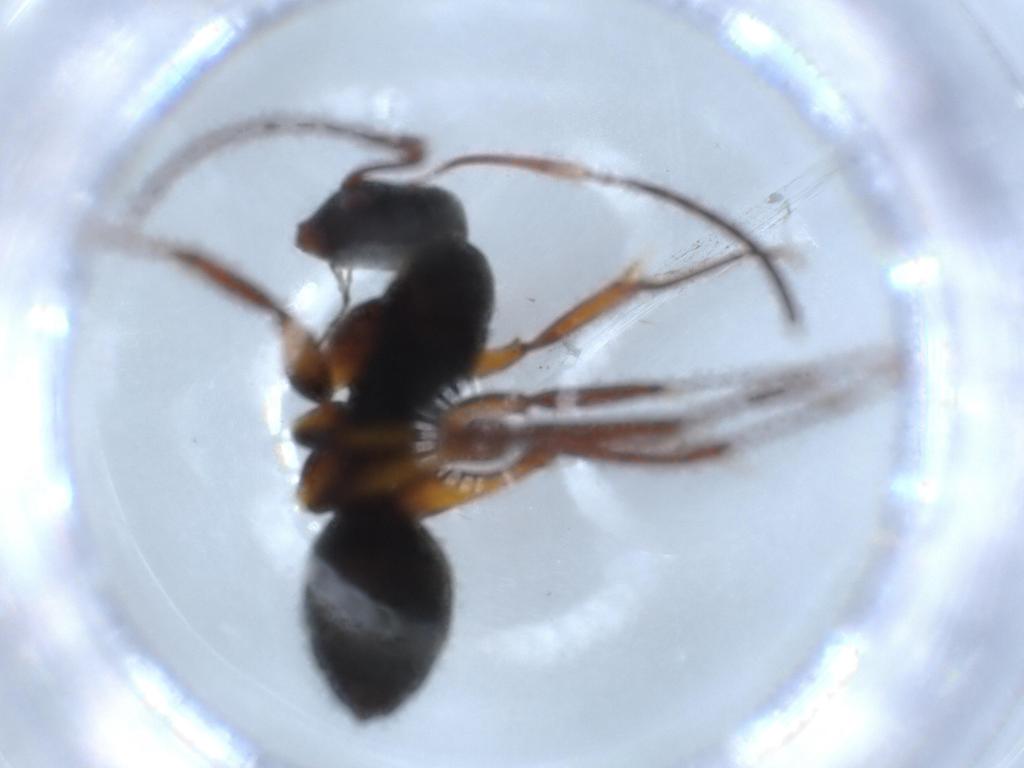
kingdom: Animalia
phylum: Arthropoda
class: Insecta
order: Hymenoptera
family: Formicidae
